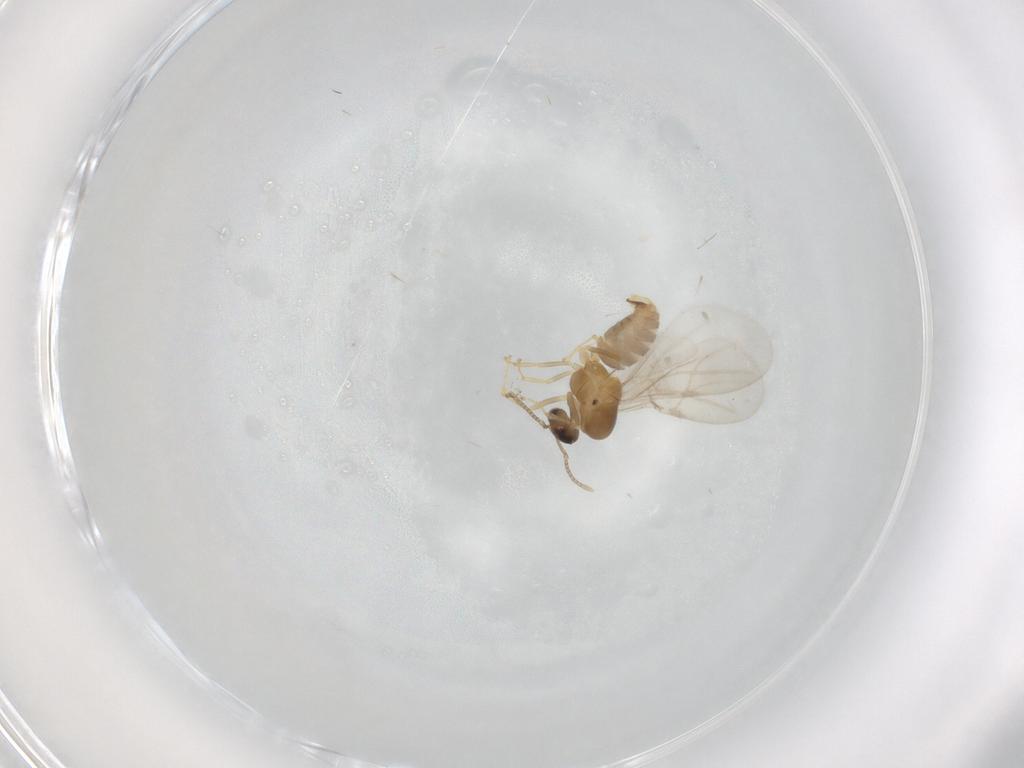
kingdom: Animalia
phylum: Arthropoda
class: Insecta
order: Hymenoptera
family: Formicidae
